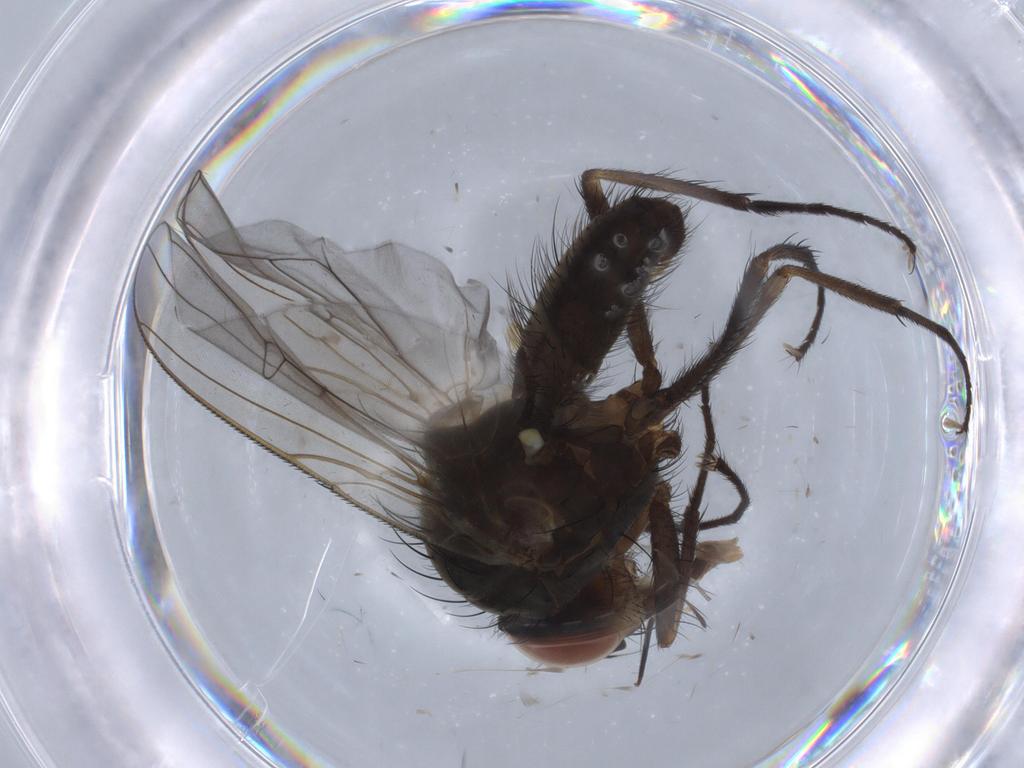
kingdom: Animalia
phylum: Arthropoda
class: Insecta
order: Diptera
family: Anthomyiidae
